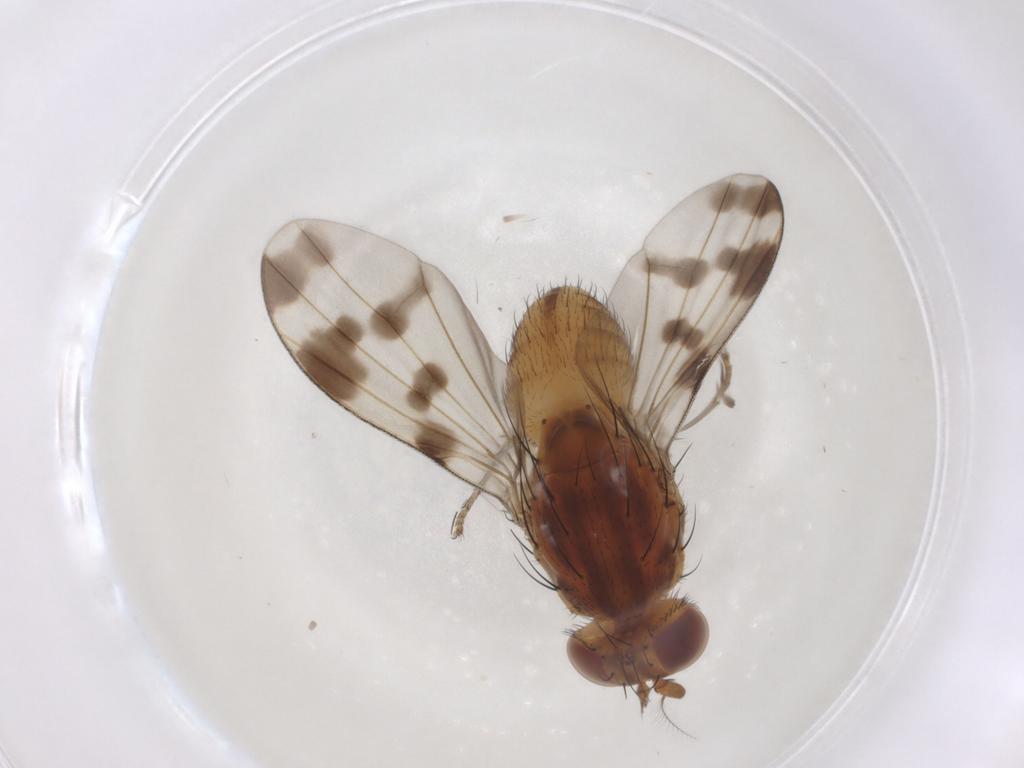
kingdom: Animalia
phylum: Arthropoda
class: Insecta
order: Diptera
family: Lauxaniidae
